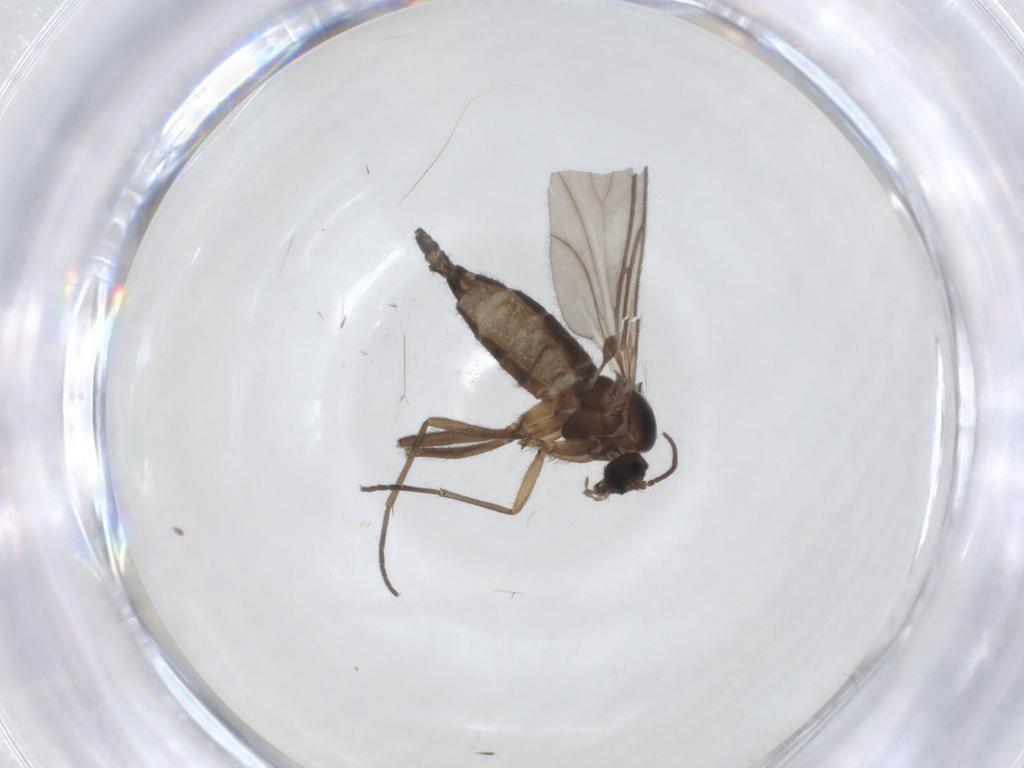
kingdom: Animalia
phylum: Arthropoda
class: Insecta
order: Diptera
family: Sciaridae
